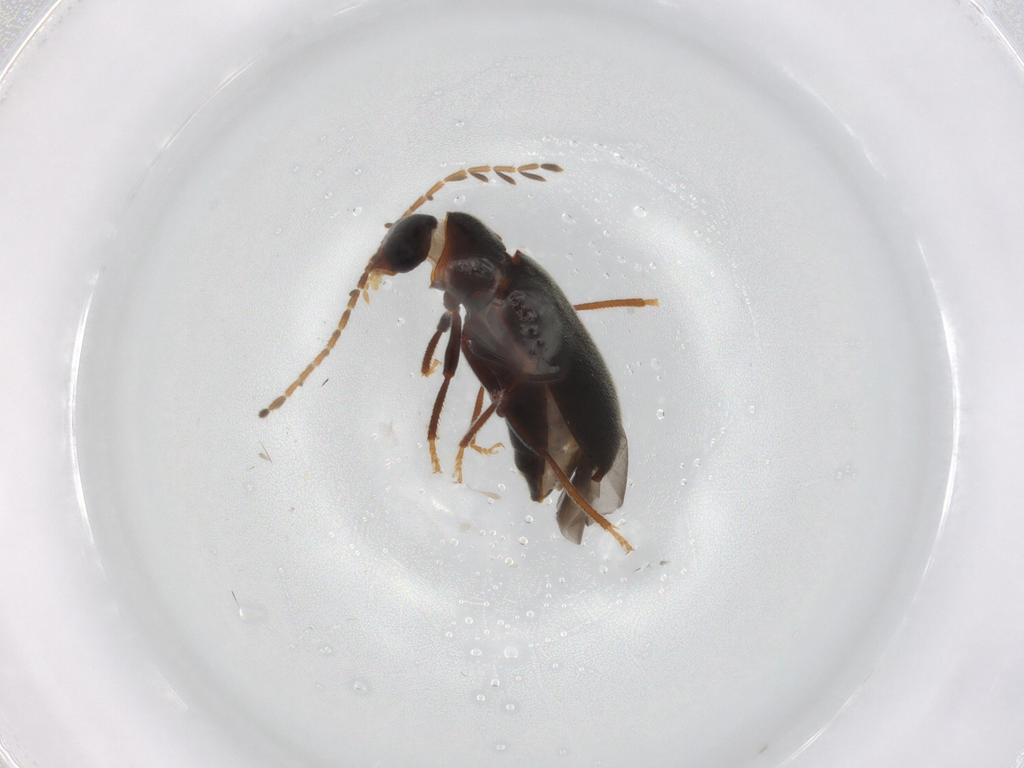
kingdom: Animalia
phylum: Arthropoda
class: Insecta
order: Coleoptera
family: Ptilodactylidae
